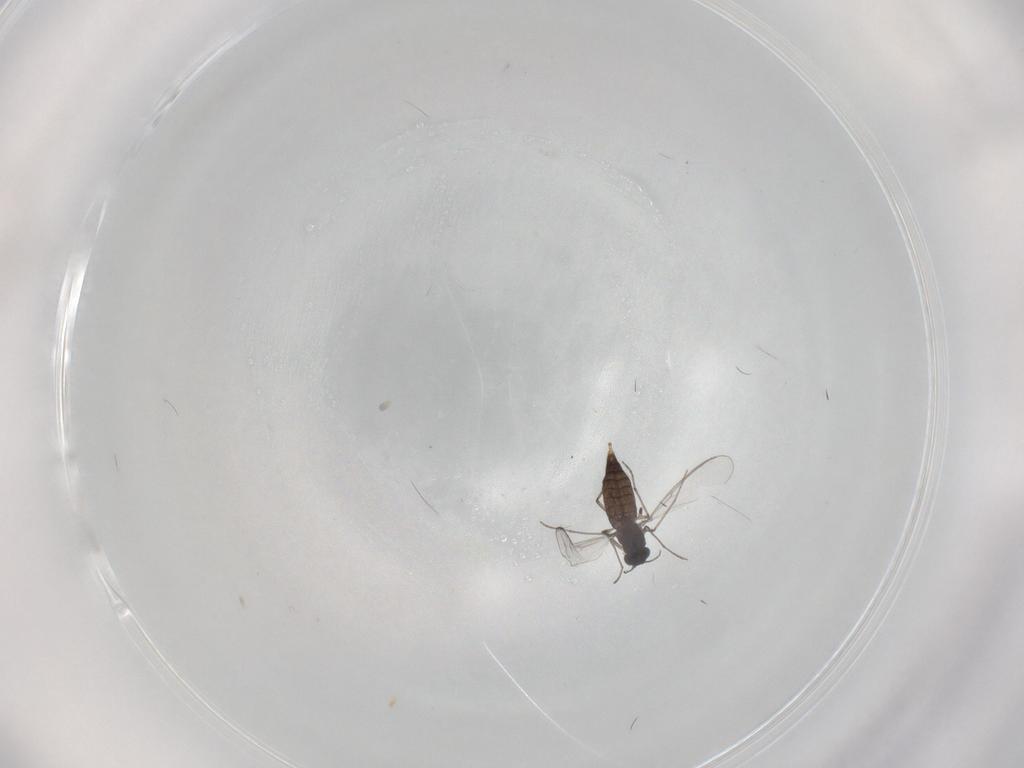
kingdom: Animalia
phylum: Arthropoda
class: Insecta
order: Diptera
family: Chironomidae
